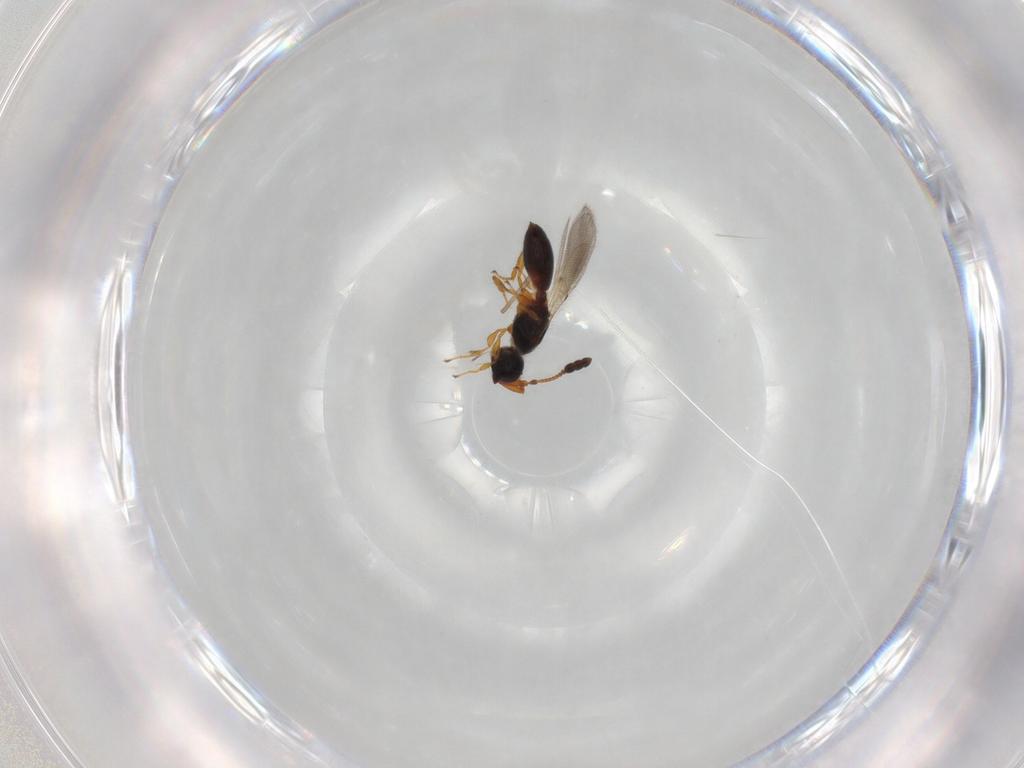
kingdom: Animalia
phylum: Arthropoda
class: Insecta
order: Hymenoptera
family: Diapriidae
